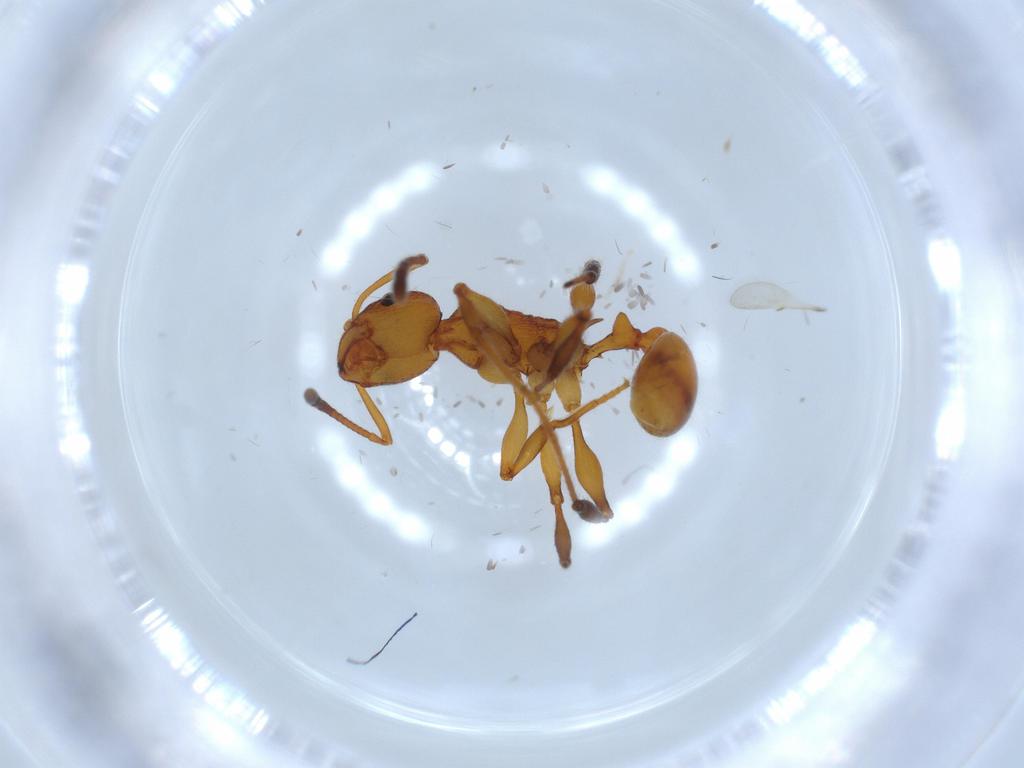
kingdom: Animalia
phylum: Arthropoda
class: Insecta
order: Hymenoptera
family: Formicidae
